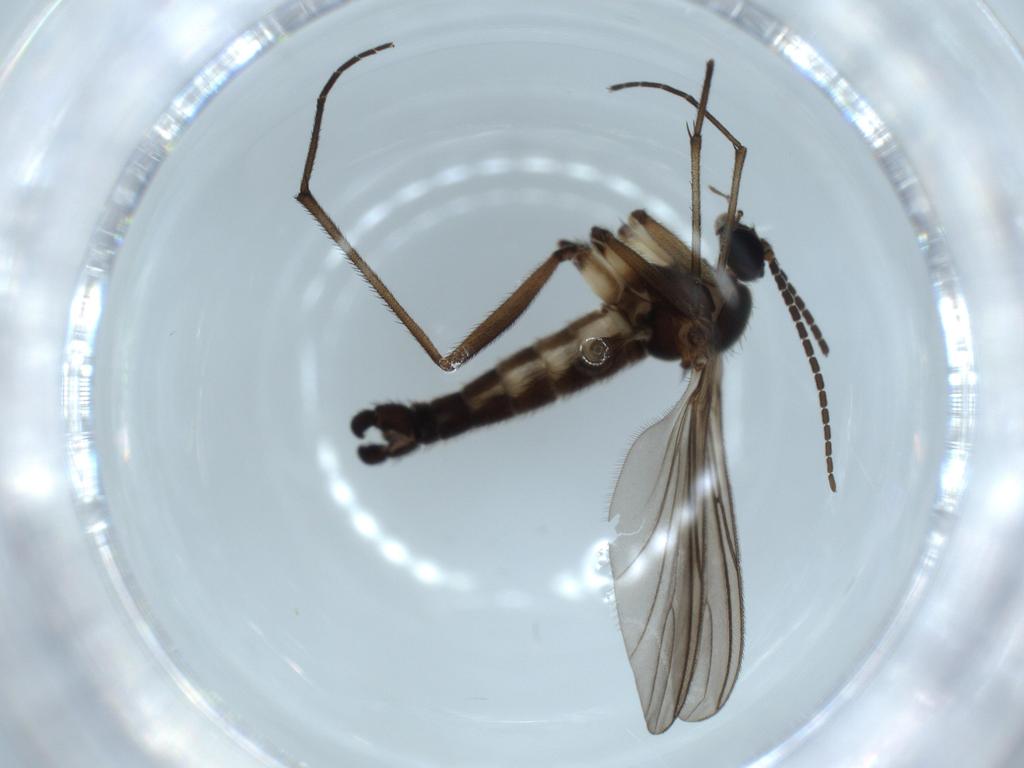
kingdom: Animalia
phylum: Arthropoda
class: Insecta
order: Diptera
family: Sciaridae
